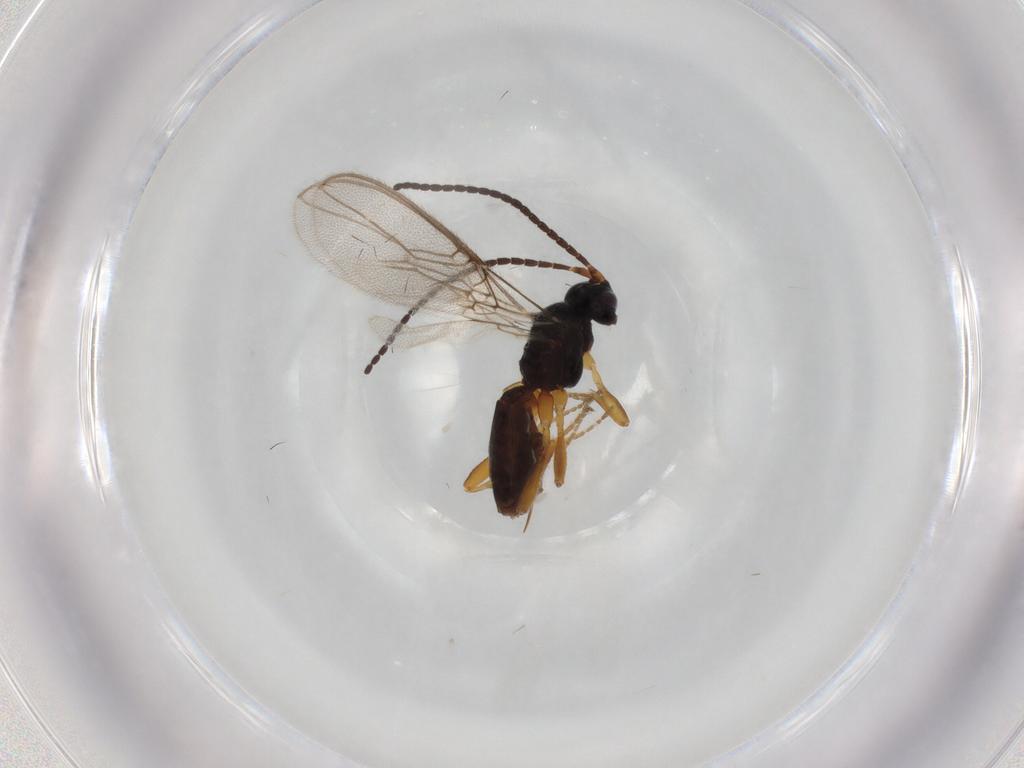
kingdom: Animalia
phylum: Arthropoda
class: Insecta
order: Hymenoptera
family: Braconidae
